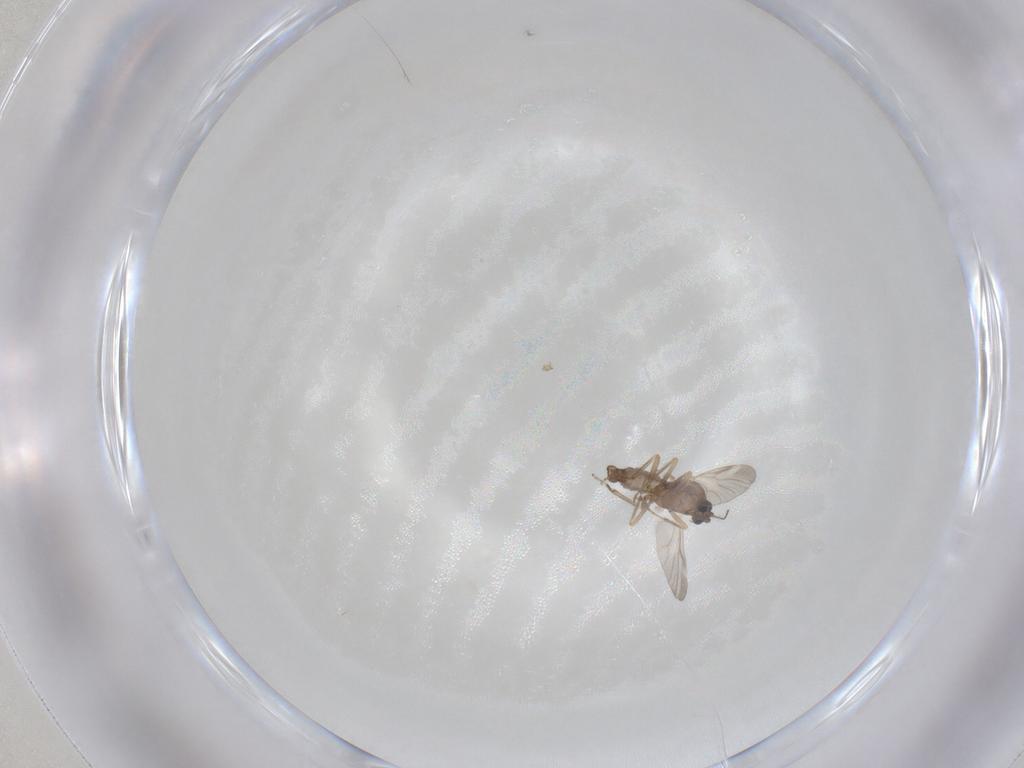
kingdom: Animalia
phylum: Arthropoda
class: Insecta
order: Diptera
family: Ceratopogonidae
